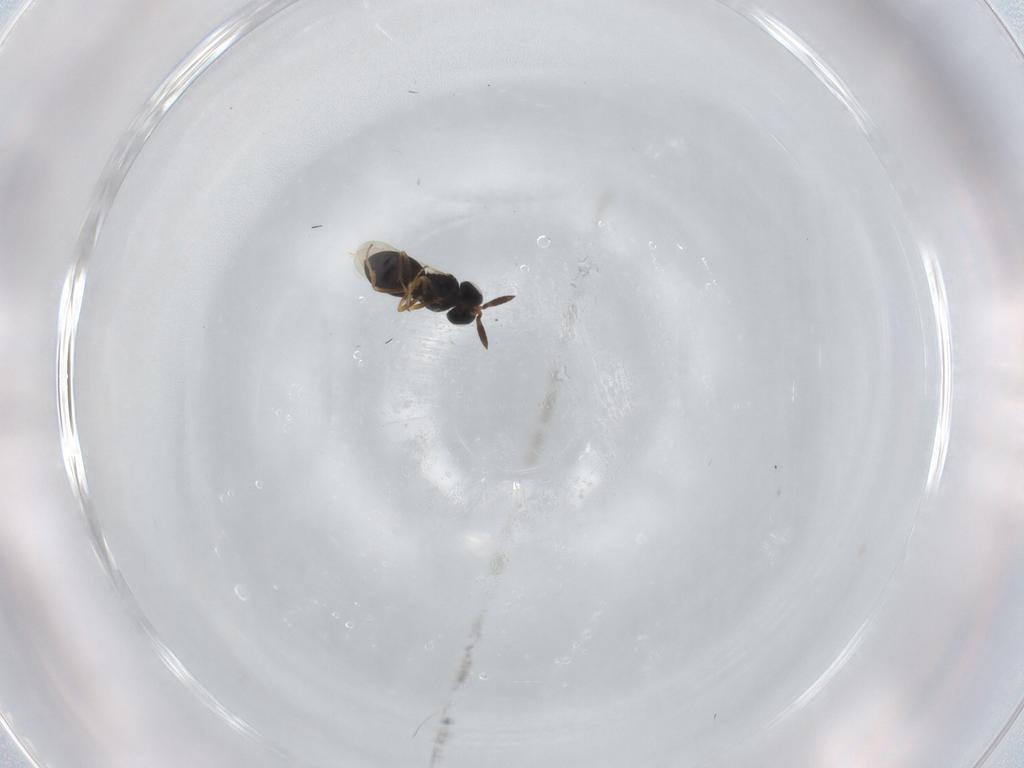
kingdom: Animalia
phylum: Arthropoda
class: Insecta
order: Hymenoptera
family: Scelionidae
